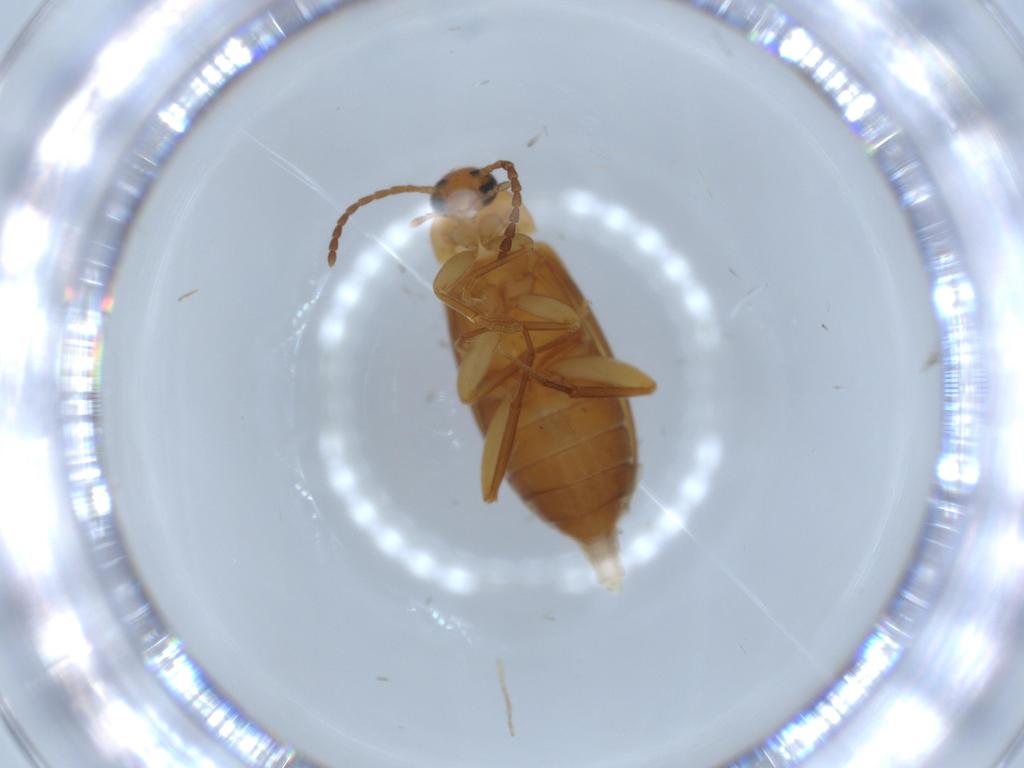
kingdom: Animalia
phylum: Arthropoda
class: Insecta
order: Coleoptera
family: Scraptiidae
